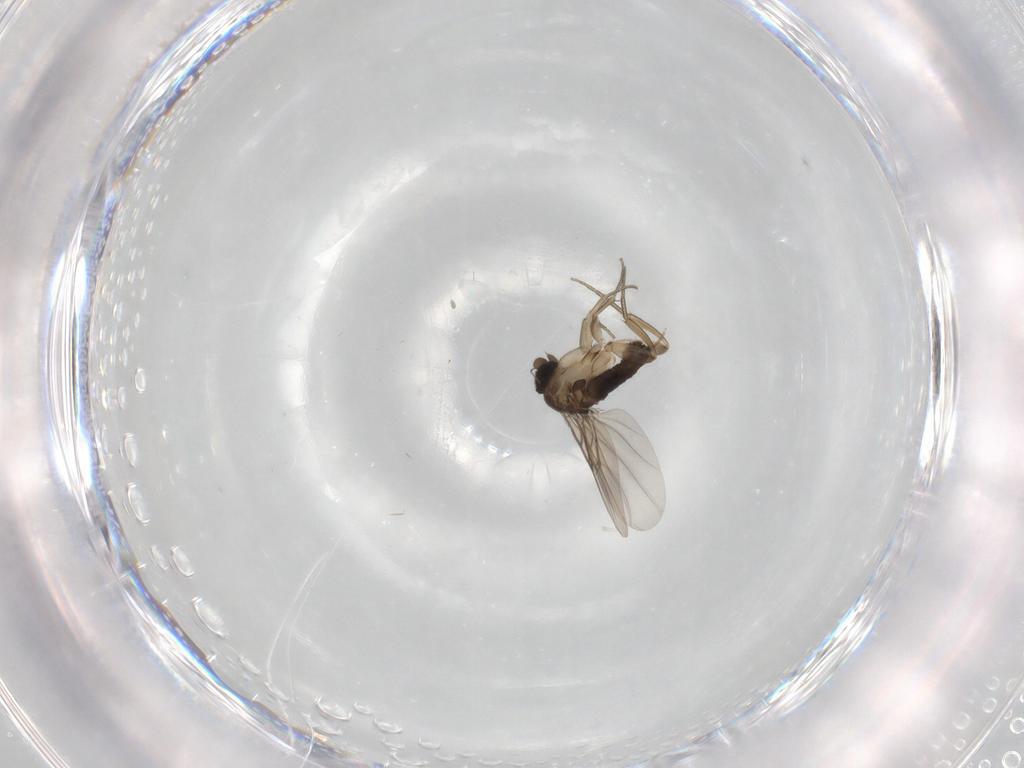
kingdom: Animalia
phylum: Arthropoda
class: Insecta
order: Diptera
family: Phoridae
